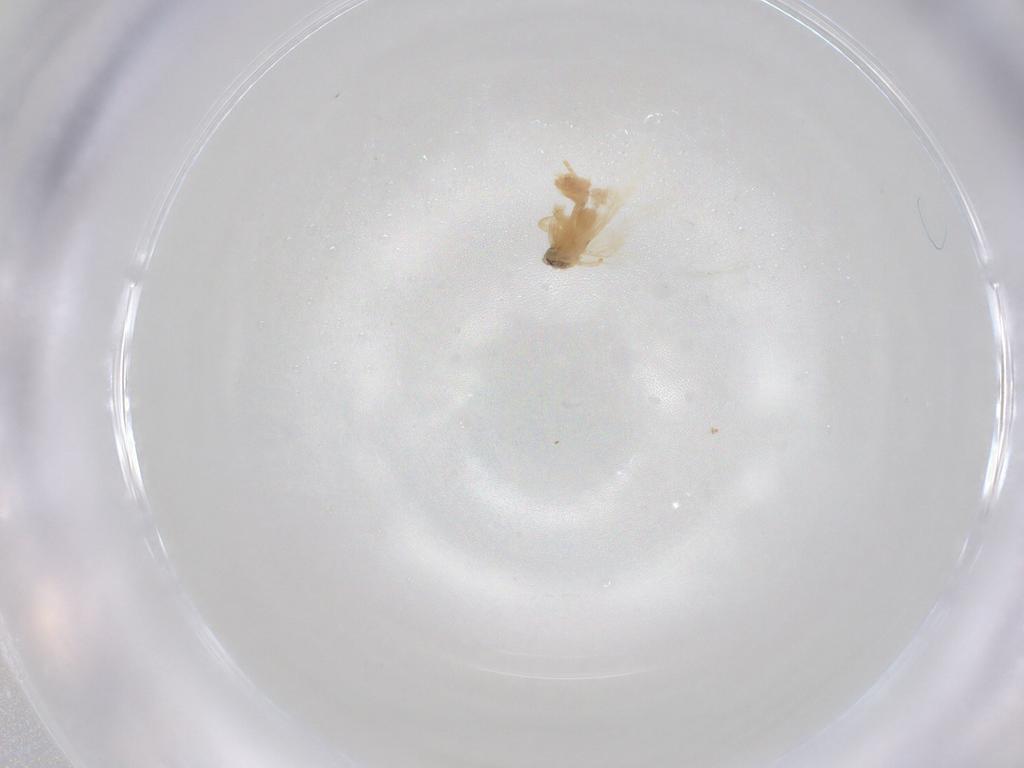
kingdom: Animalia
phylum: Arthropoda
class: Insecta
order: Lepidoptera
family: Nepticulidae
